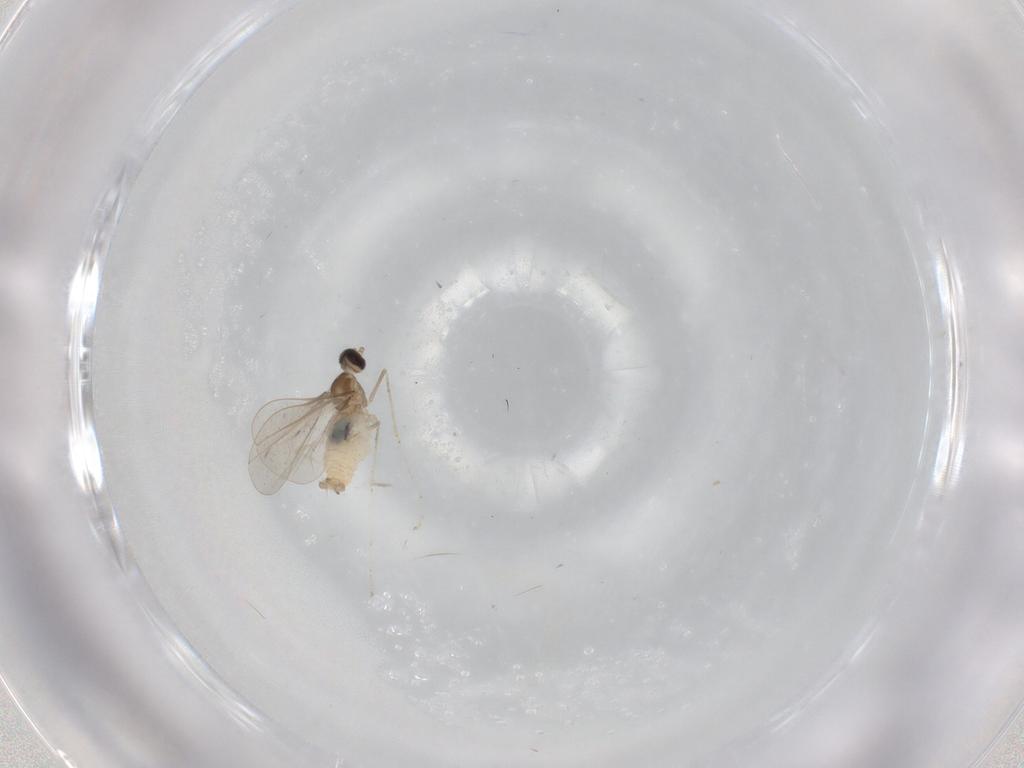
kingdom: Animalia
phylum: Arthropoda
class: Insecta
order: Diptera
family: Cecidomyiidae
